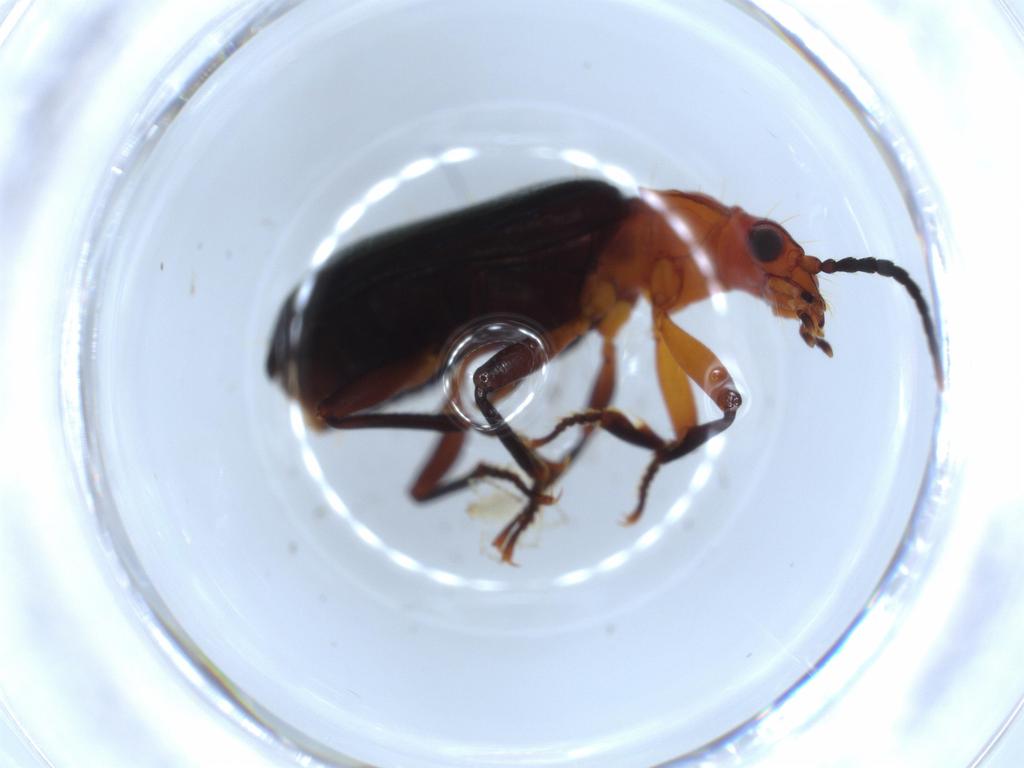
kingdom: Animalia
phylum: Arthropoda
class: Insecta
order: Coleoptera
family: Carabidae
